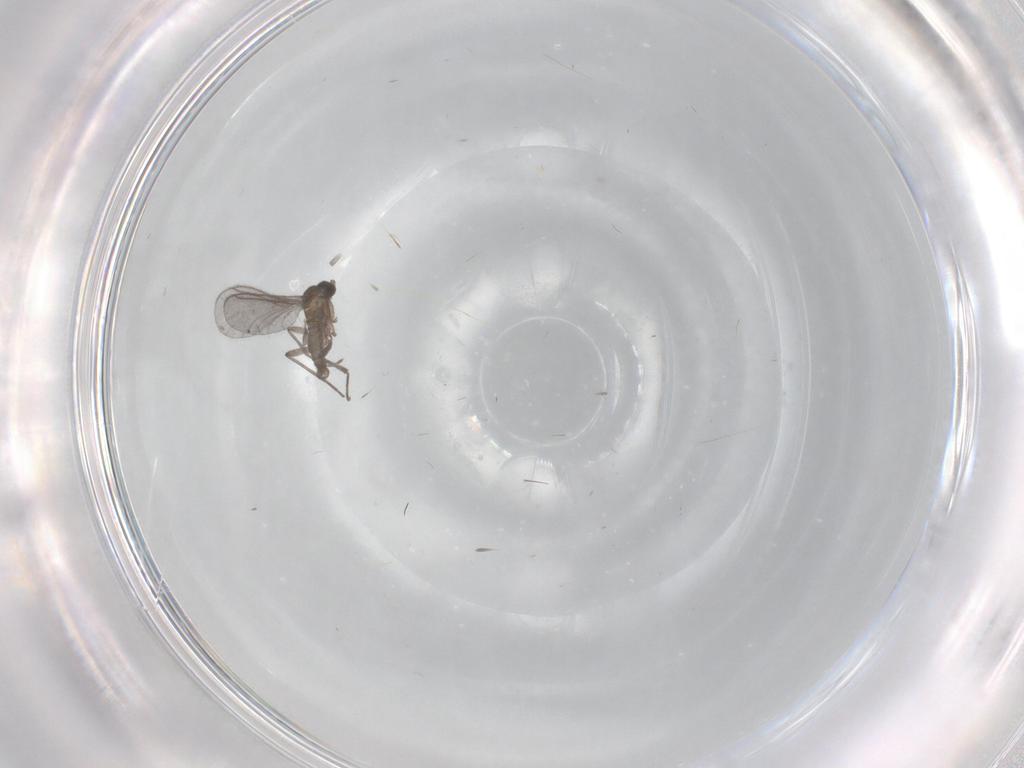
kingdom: Animalia
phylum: Arthropoda
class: Insecta
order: Diptera
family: Sciaridae
